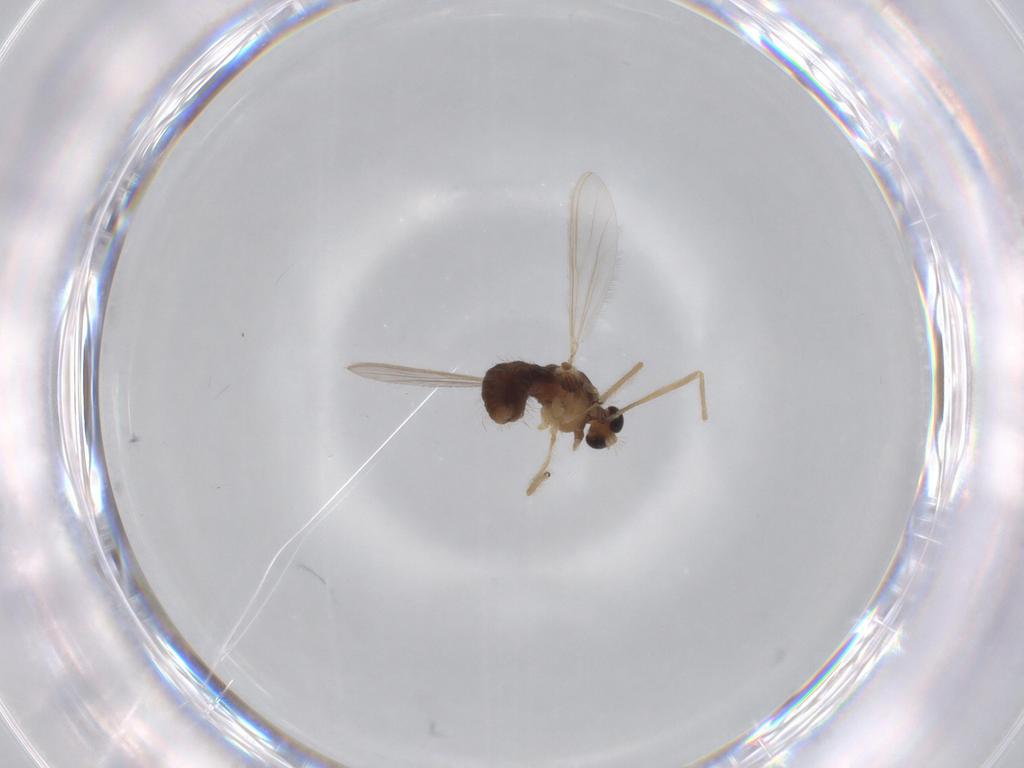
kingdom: Animalia
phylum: Arthropoda
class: Insecta
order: Diptera
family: Chironomidae
